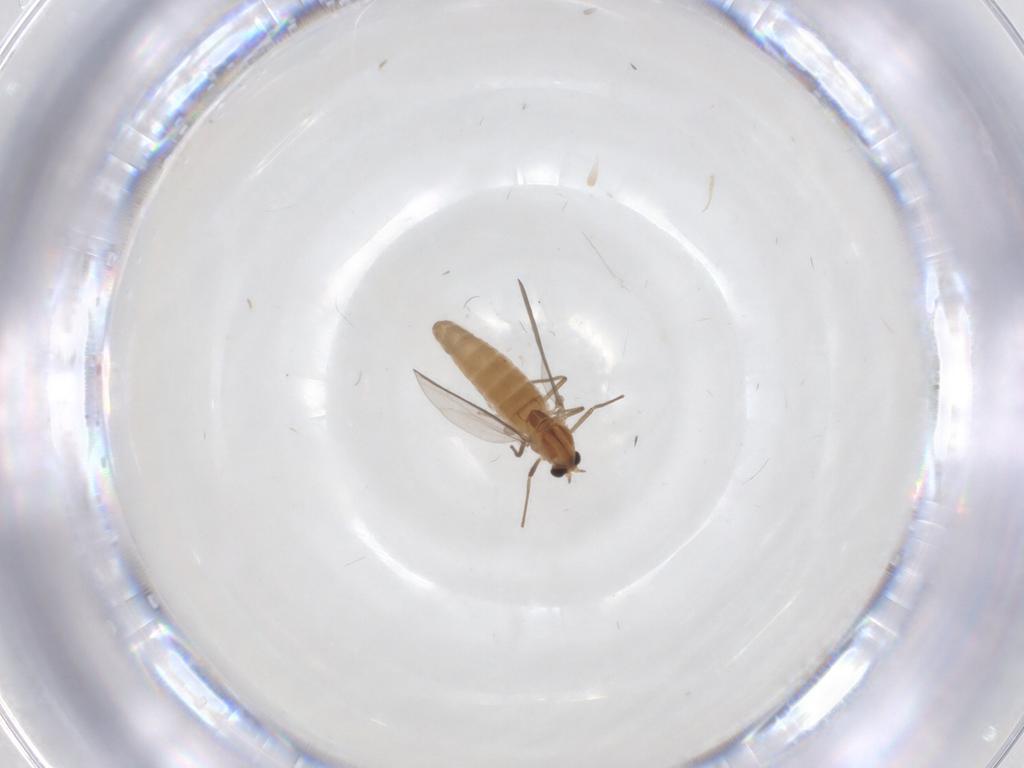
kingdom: Animalia
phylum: Arthropoda
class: Insecta
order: Diptera
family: Chironomidae
